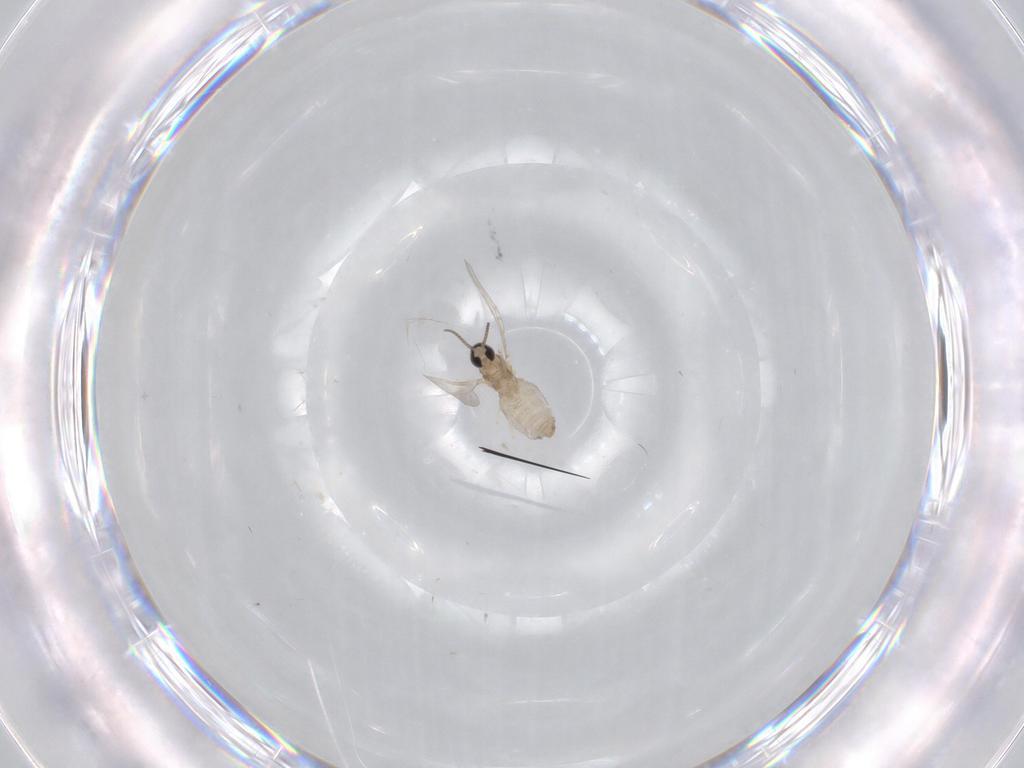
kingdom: Animalia
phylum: Arthropoda
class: Insecta
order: Diptera
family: Cecidomyiidae
